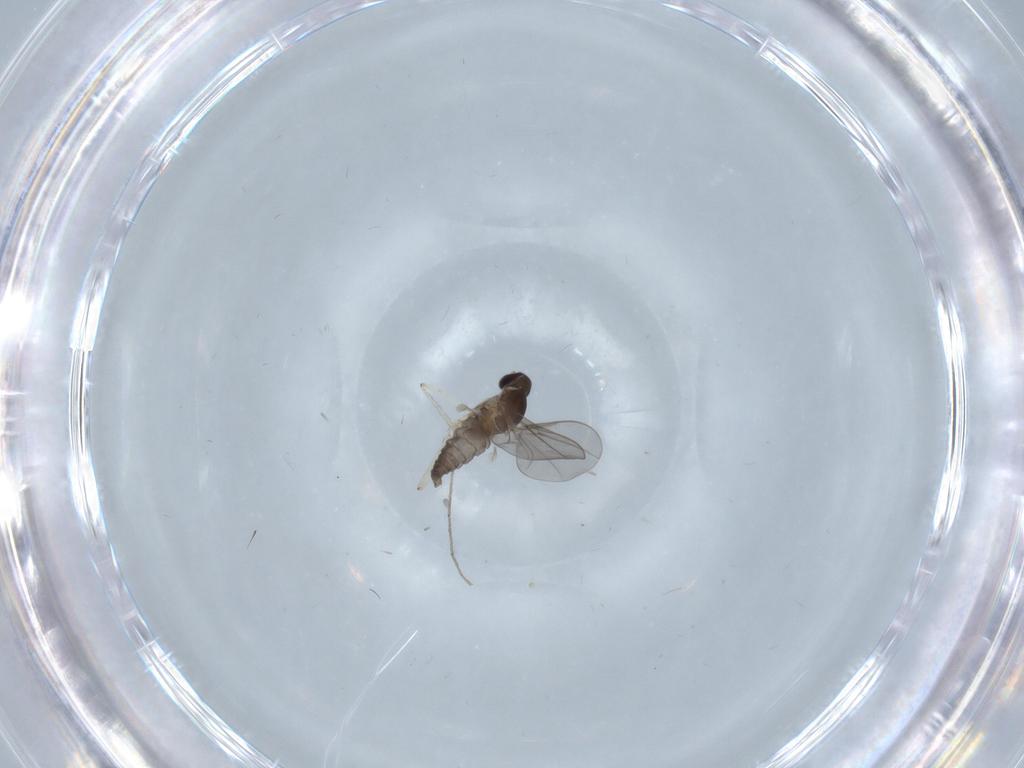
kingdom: Animalia
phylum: Arthropoda
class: Insecta
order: Diptera
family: Cecidomyiidae
